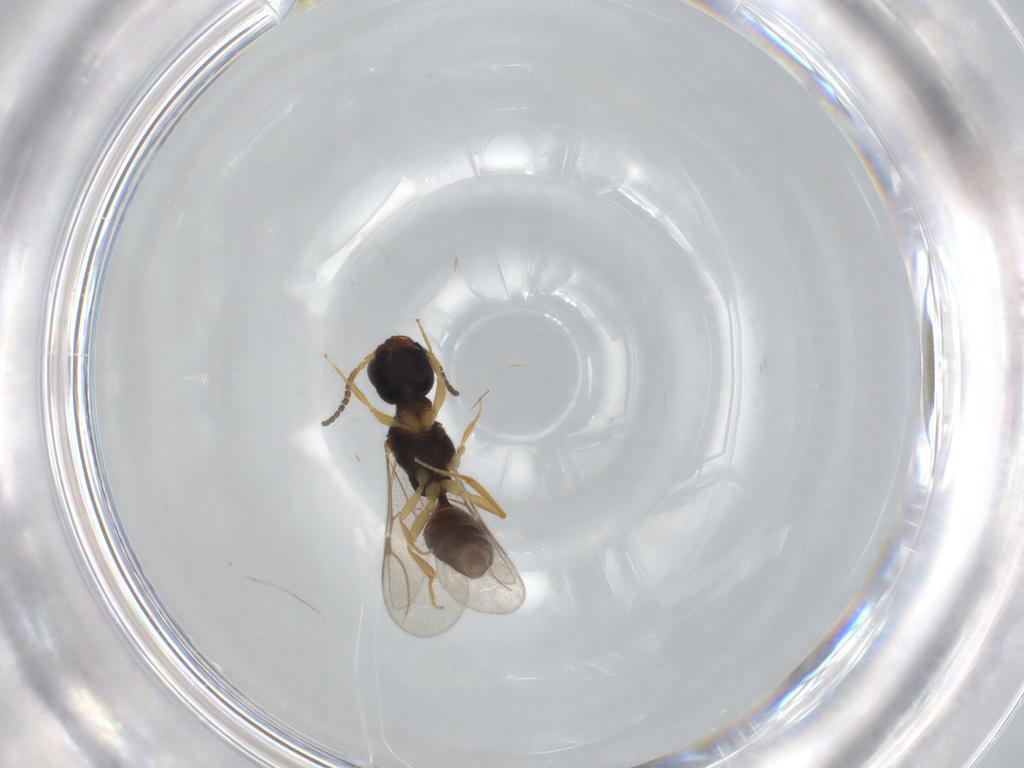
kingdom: Animalia
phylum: Arthropoda
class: Insecta
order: Hymenoptera
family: Bethylidae
